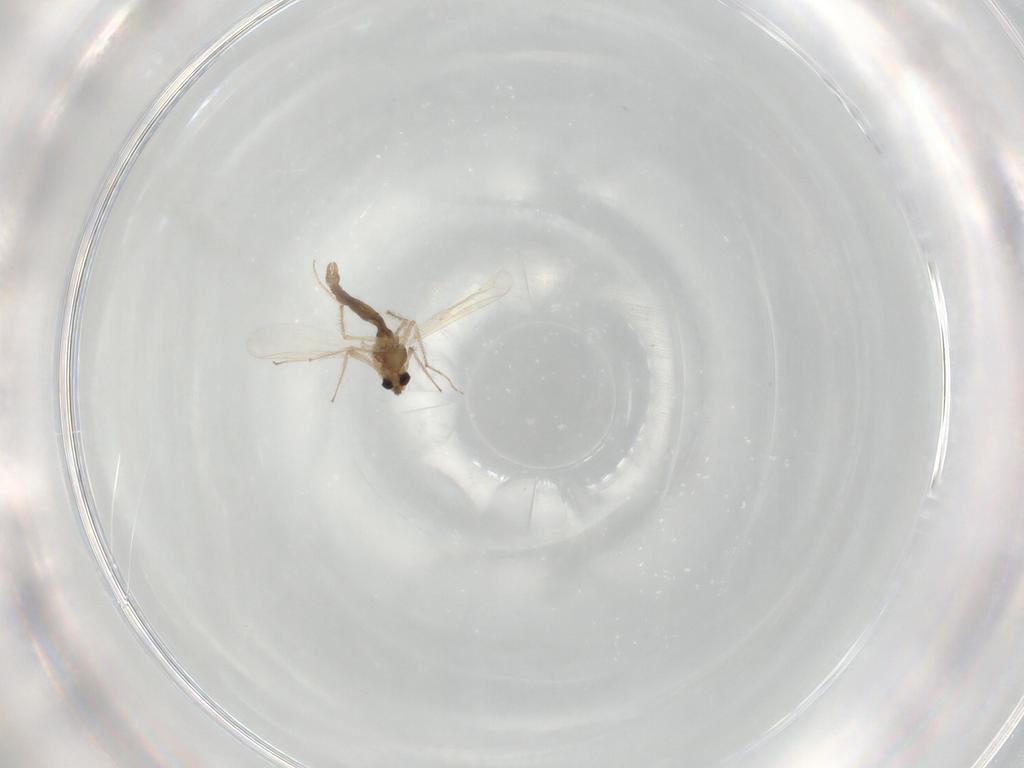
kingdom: Animalia
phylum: Arthropoda
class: Insecta
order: Diptera
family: Chironomidae
